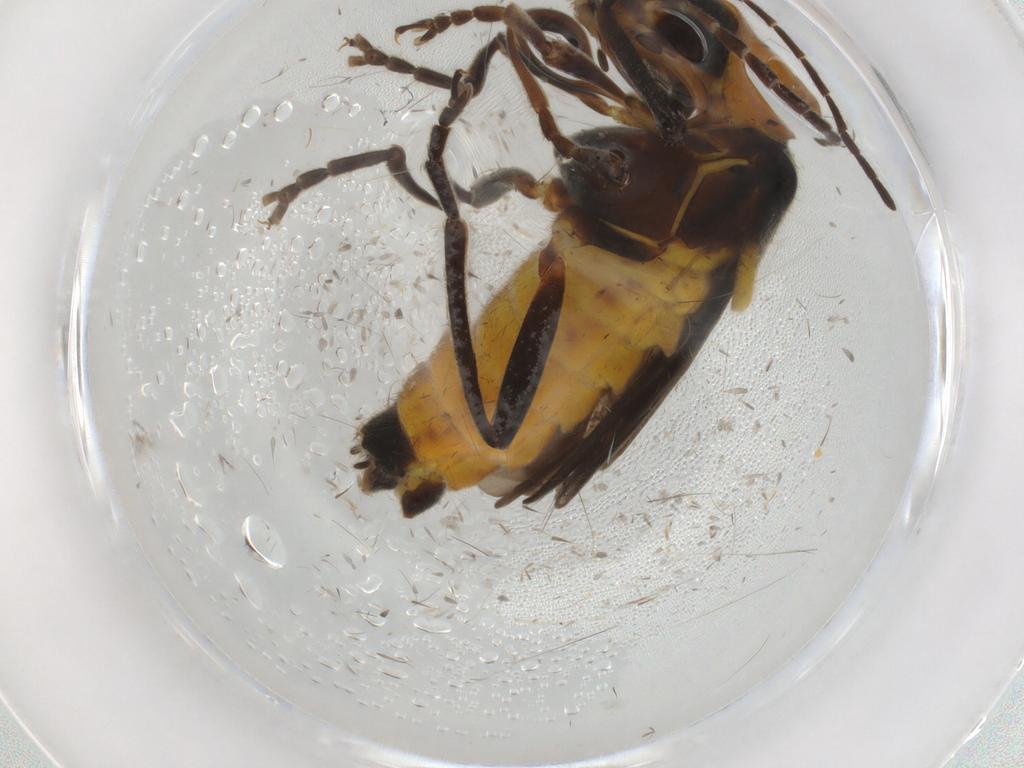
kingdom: Animalia
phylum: Arthropoda
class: Insecta
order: Coleoptera
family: Cantharidae
